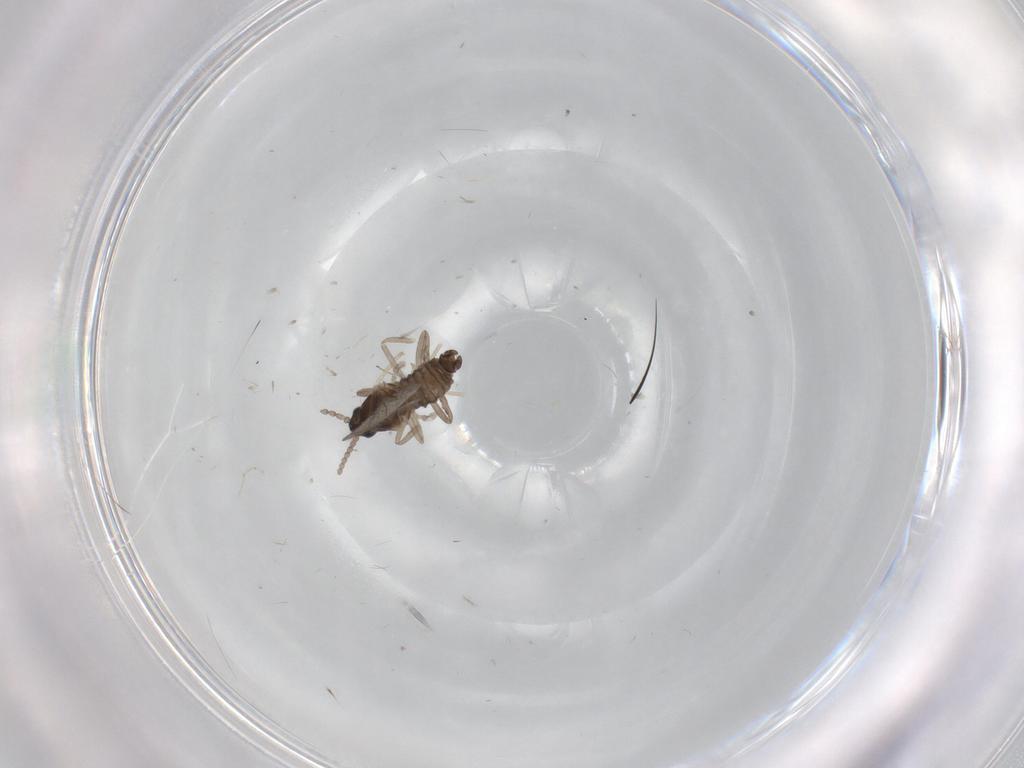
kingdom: Animalia
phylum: Arthropoda
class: Insecta
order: Diptera
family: Cecidomyiidae
